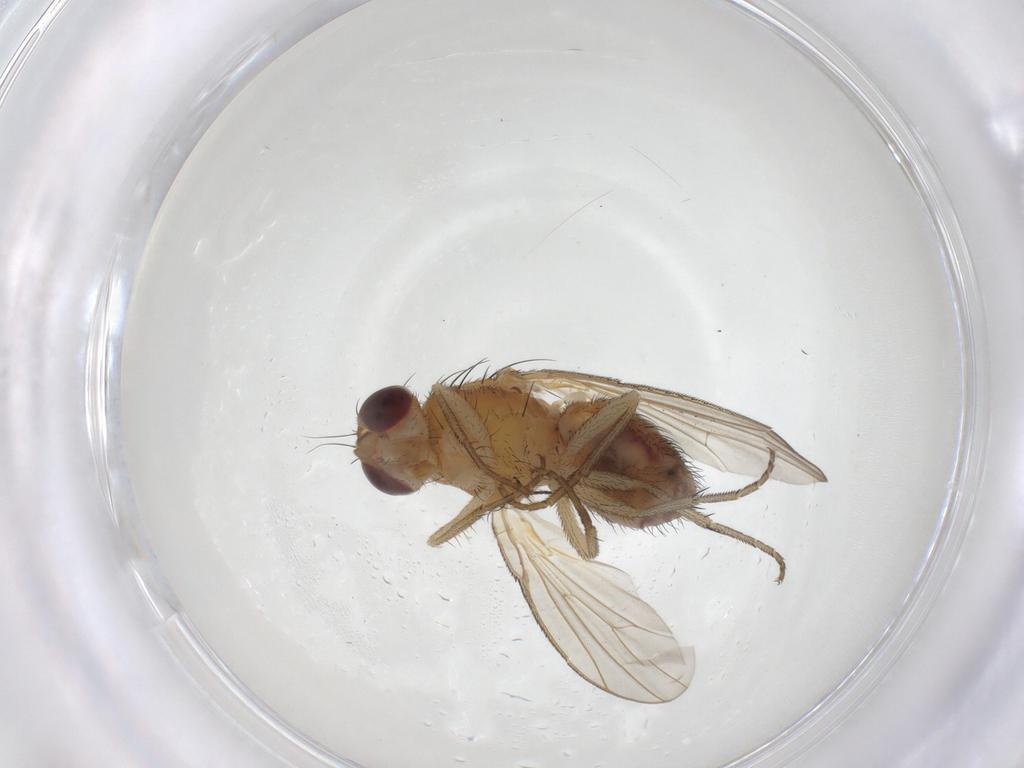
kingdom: Animalia
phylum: Arthropoda
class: Insecta
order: Diptera
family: Heleomyzidae
